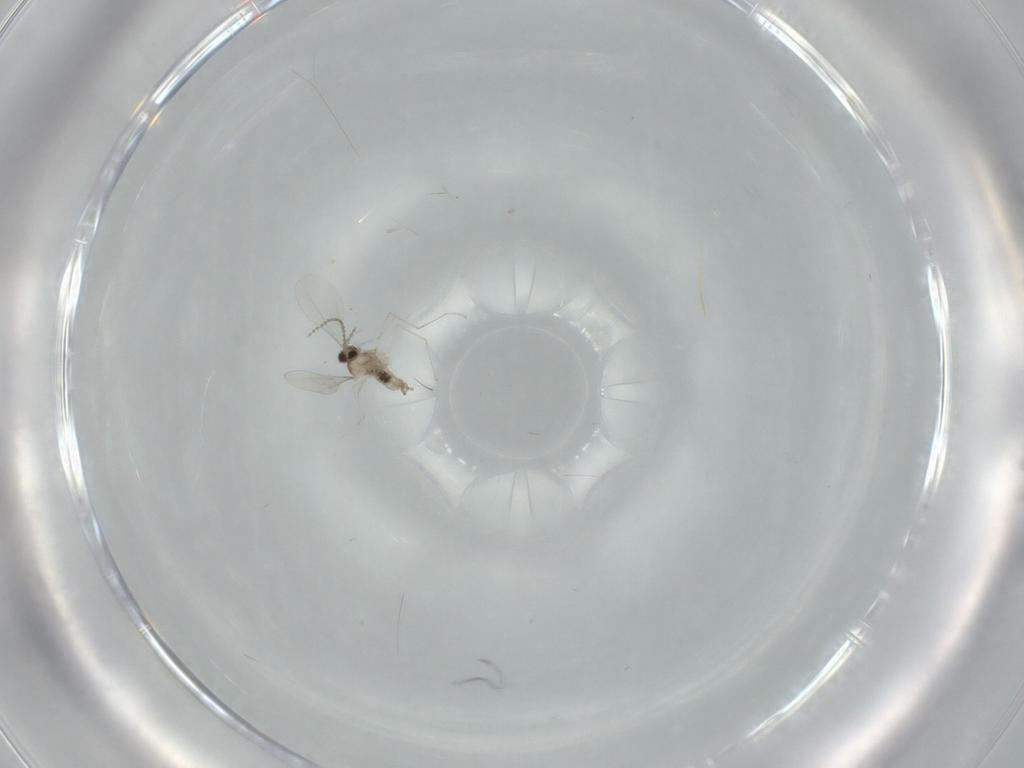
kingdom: Animalia
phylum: Arthropoda
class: Insecta
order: Diptera
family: Cecidomyiidae
